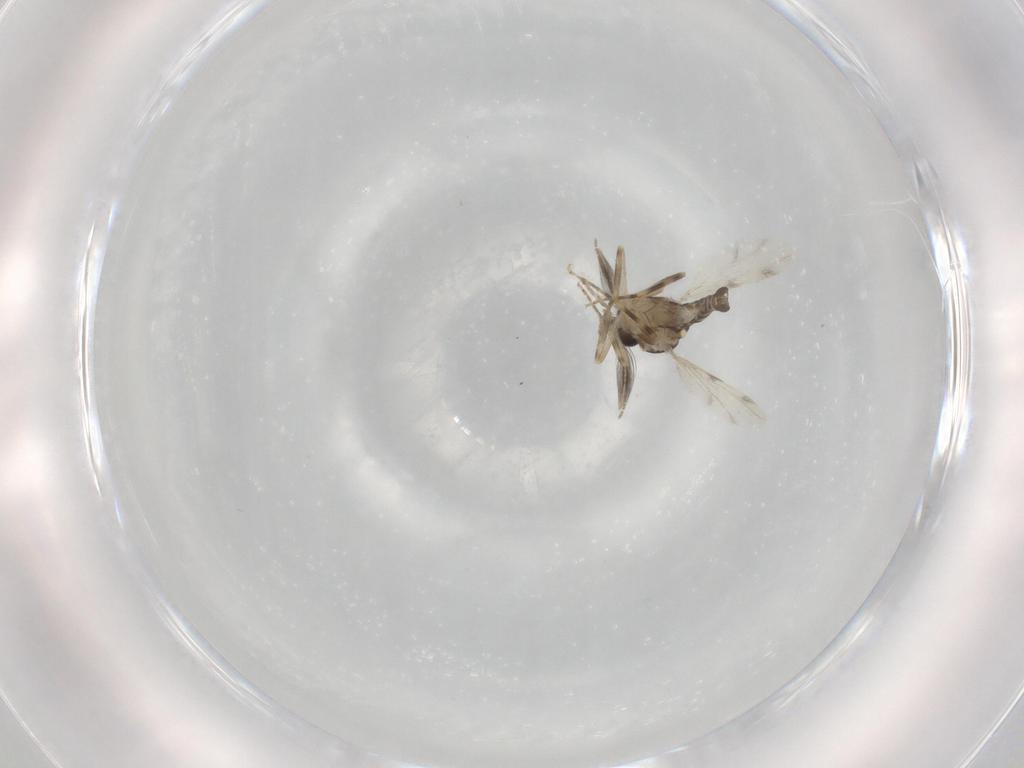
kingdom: Animalia
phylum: Arthropoda
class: Insecta
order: Diptera
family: Ceratopogonidae
